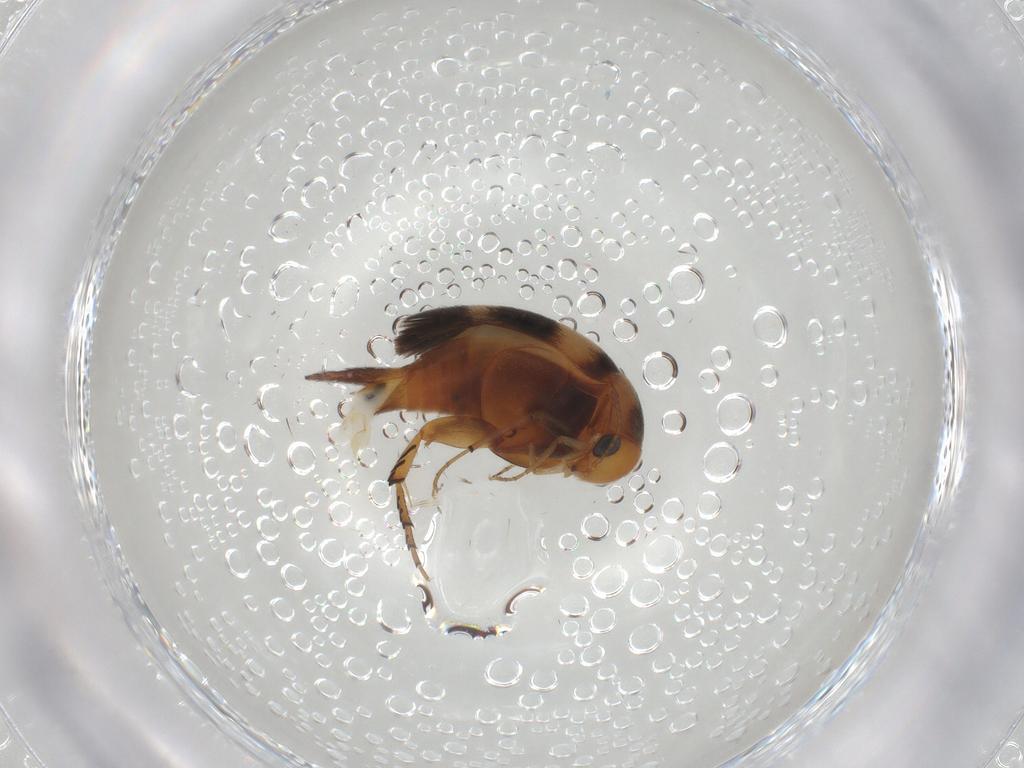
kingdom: Animalia
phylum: Arthropoda
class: Insecta
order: Coleoptera
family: Mordellidae
